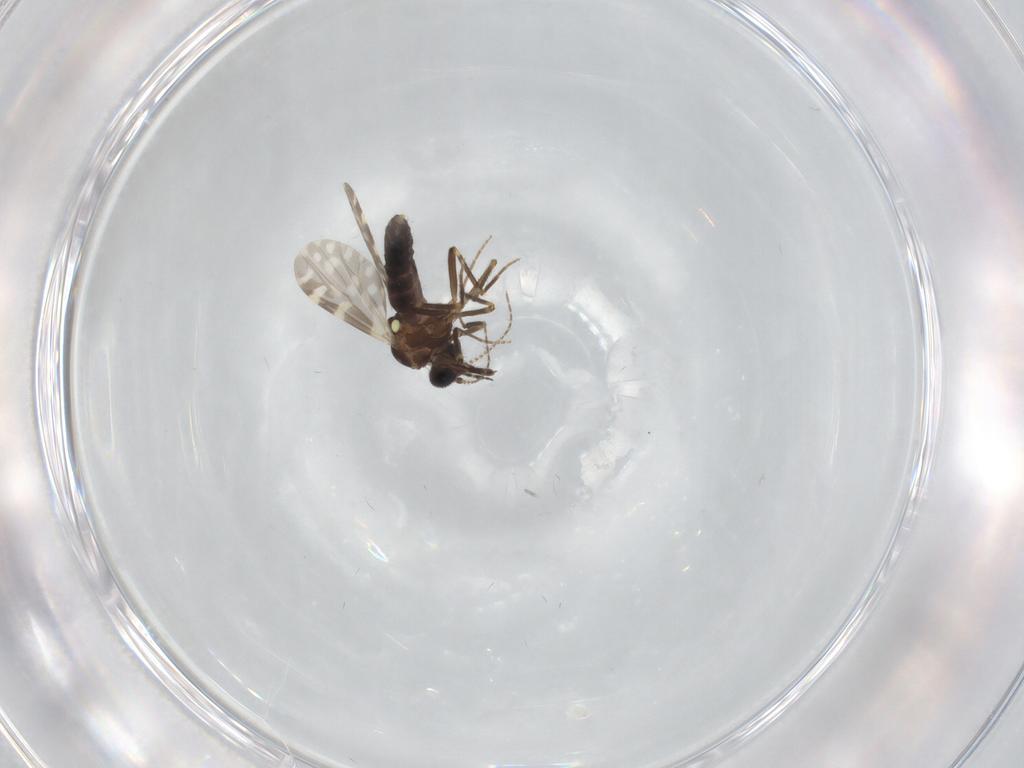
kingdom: Animalia
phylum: Arthropoda
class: Insecta
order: Diptera
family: Ceratopogonidae
